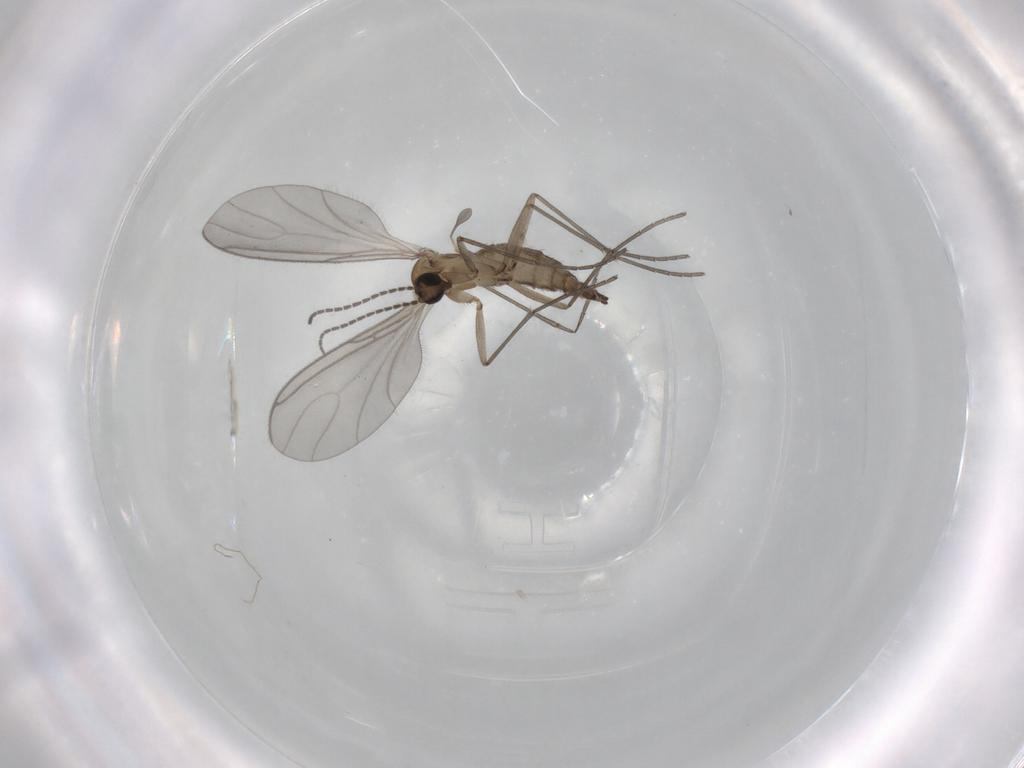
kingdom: Animalia
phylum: Arthropoda
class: Insecta
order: Diptera
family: Sciaridae
